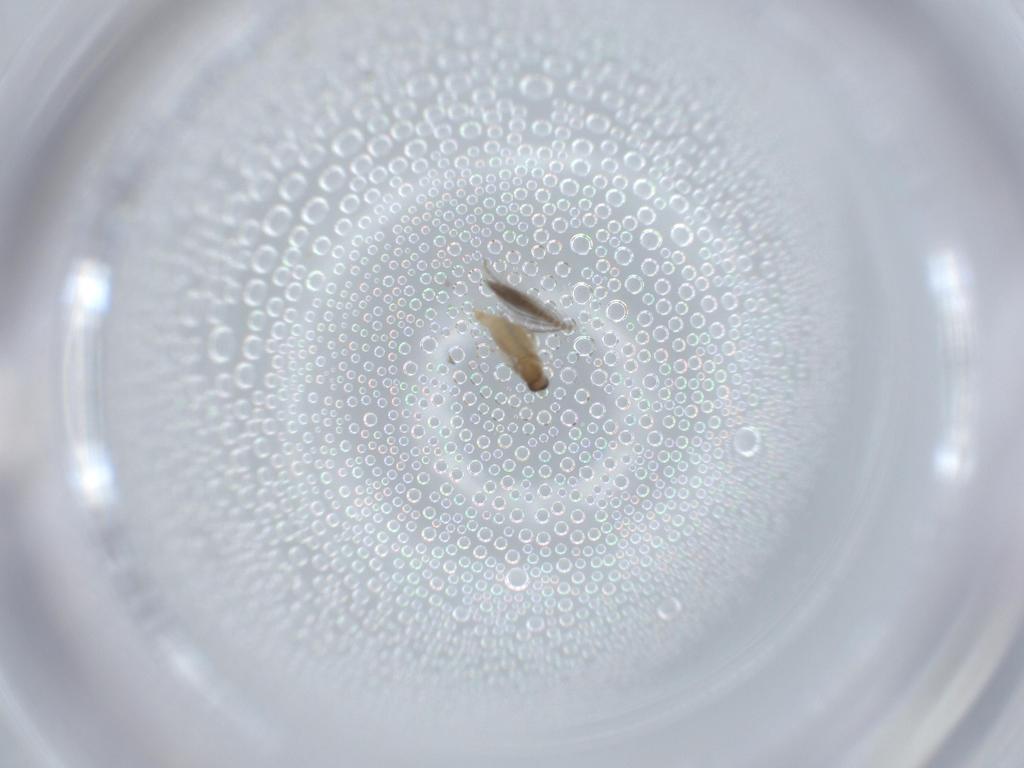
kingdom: Animalia
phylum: Arthropoda
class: Insecta
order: Diptera
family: Cecidomyiidae
